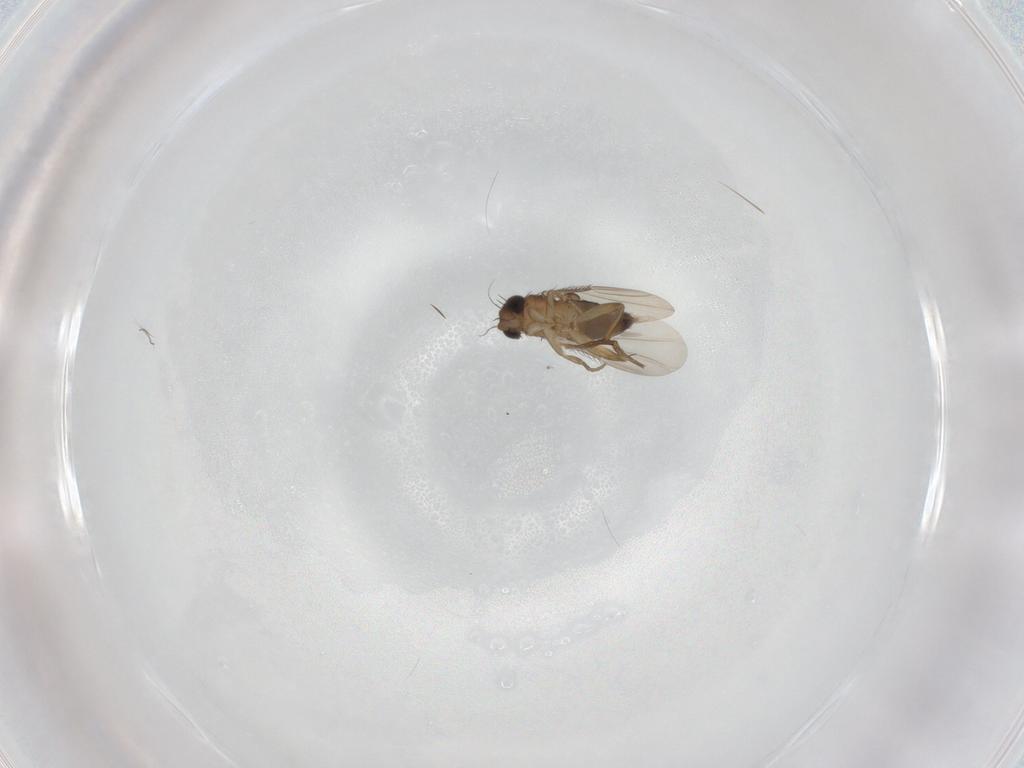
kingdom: Animalia
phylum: Arthropoda
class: Insecta
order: Diptera
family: Phoridae
